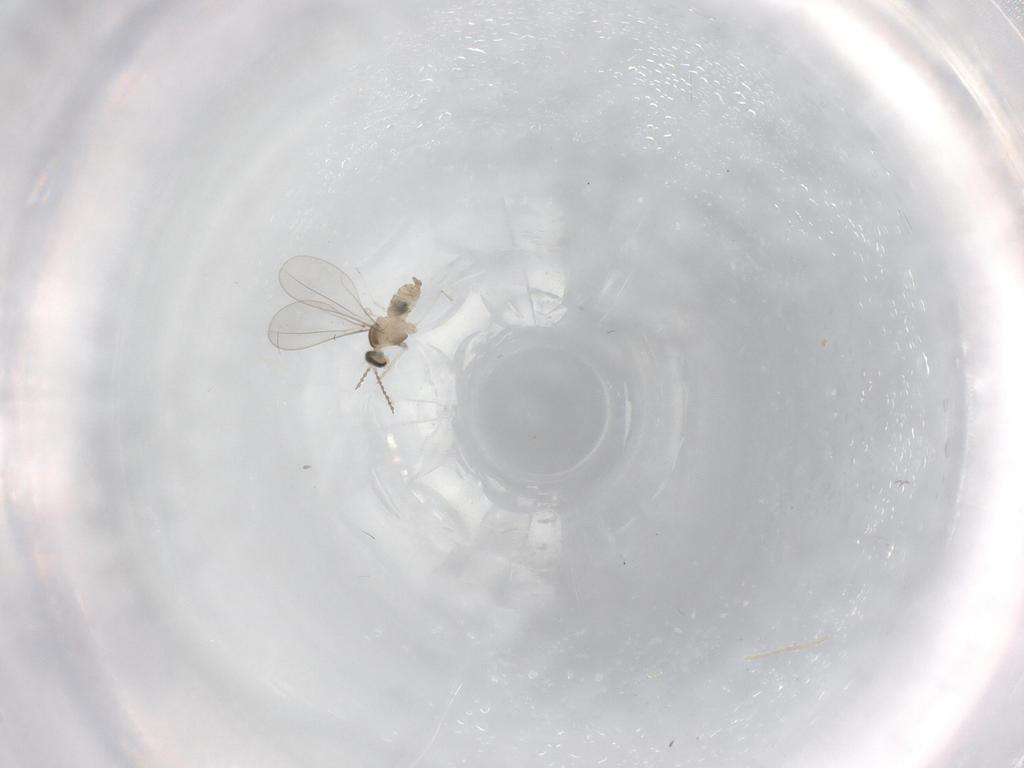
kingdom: Animalia
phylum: Arthropoda
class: Insecta
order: Diptera
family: Cecidomyiidae
